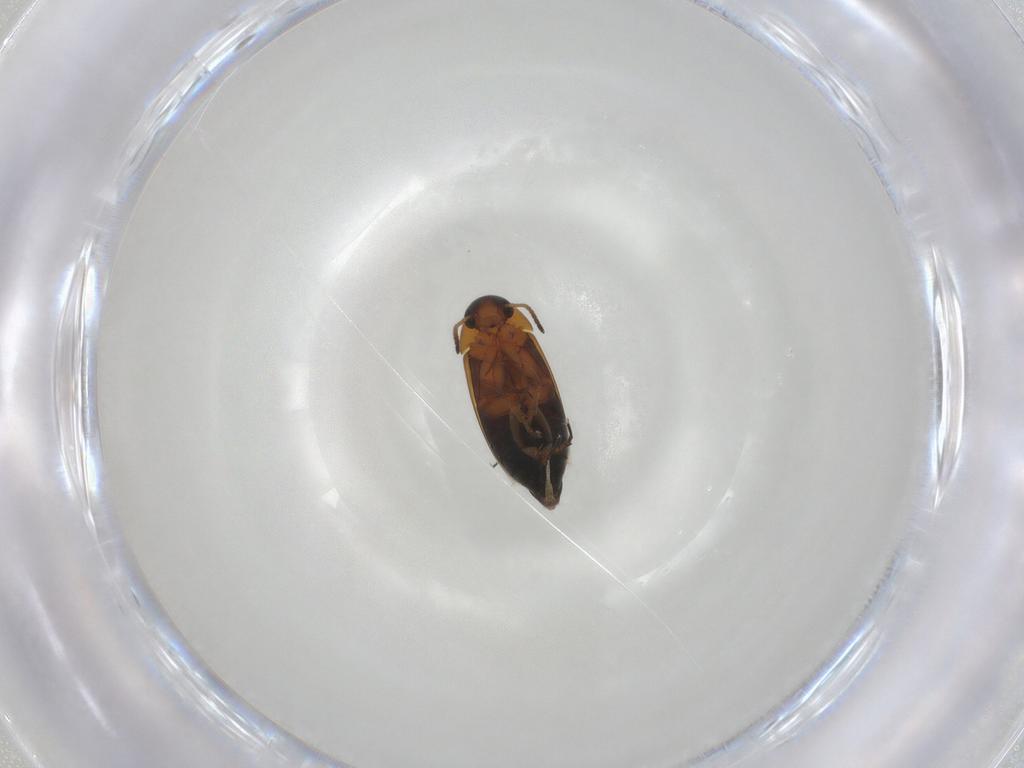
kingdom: Animalia
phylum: Arthropoda
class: Insecta
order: Coleoptera
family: Scraptiidae
